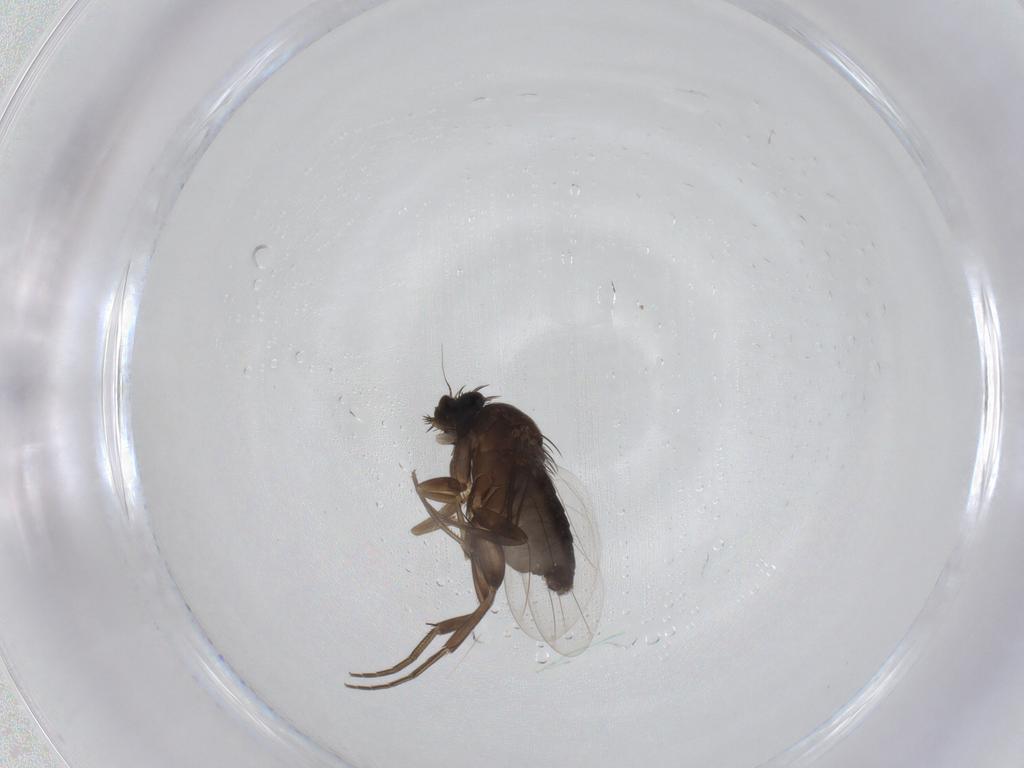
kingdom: Animalia
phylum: Arthropoda
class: Insecta
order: Diptera
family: Phoridae
